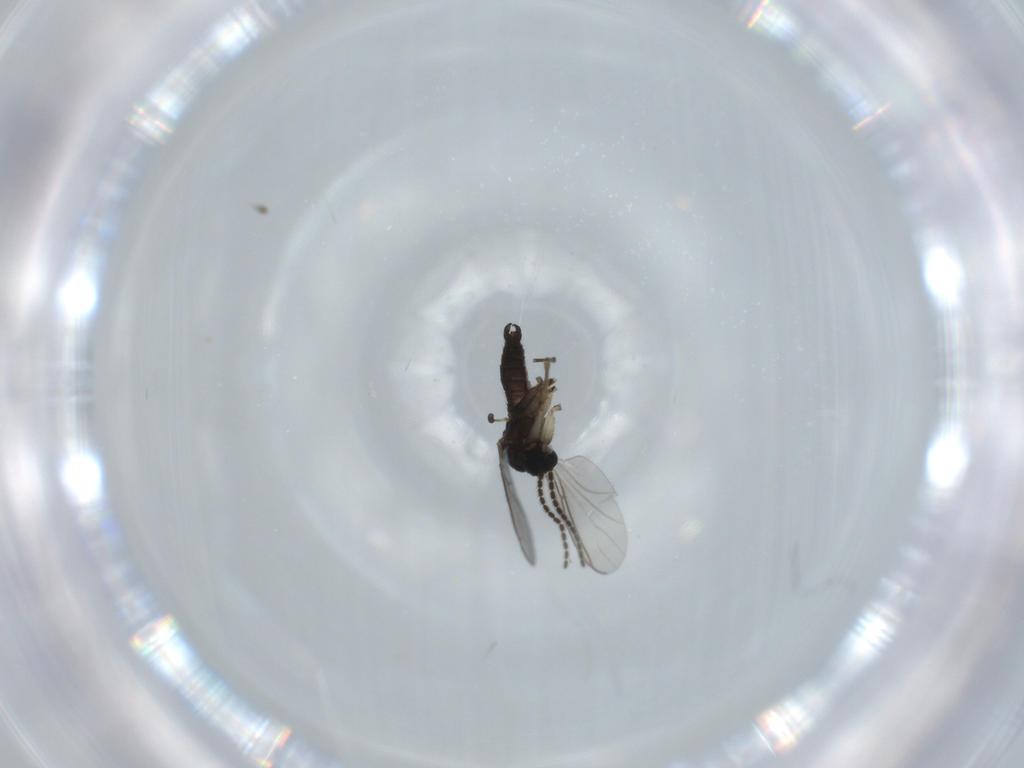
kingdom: Animalia
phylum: Arthropoda
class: Insecta
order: Diptera
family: Sciaridae
